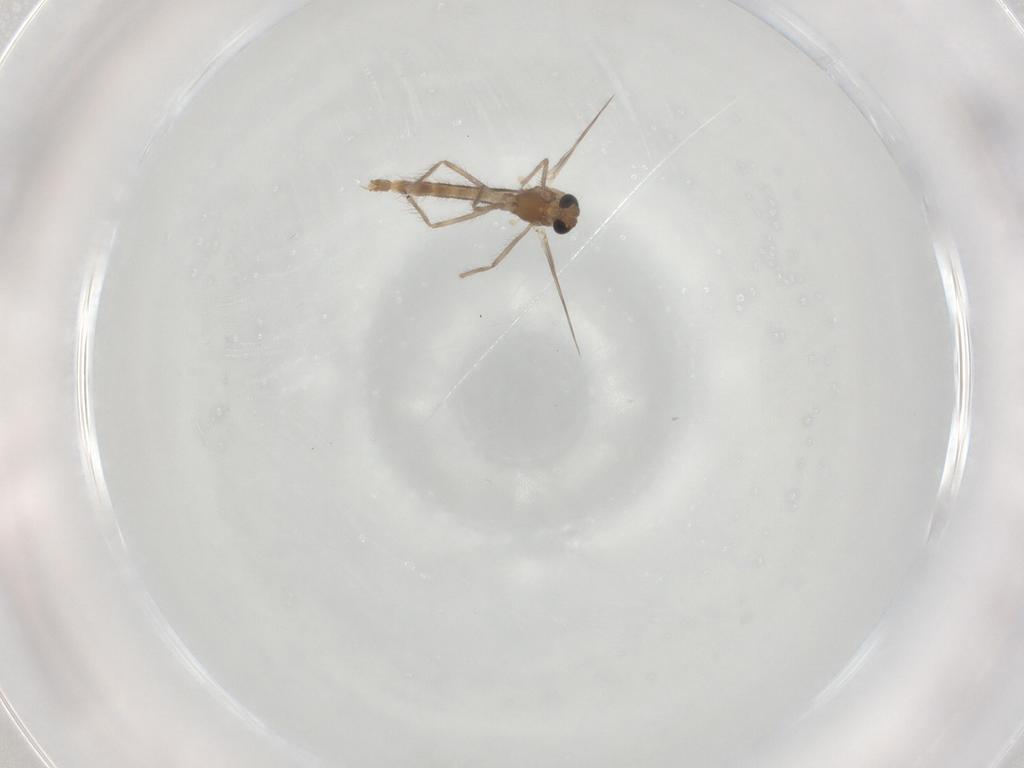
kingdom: Animalia
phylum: Arthropoda
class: Insecta
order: Diptera
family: Chironomidae
